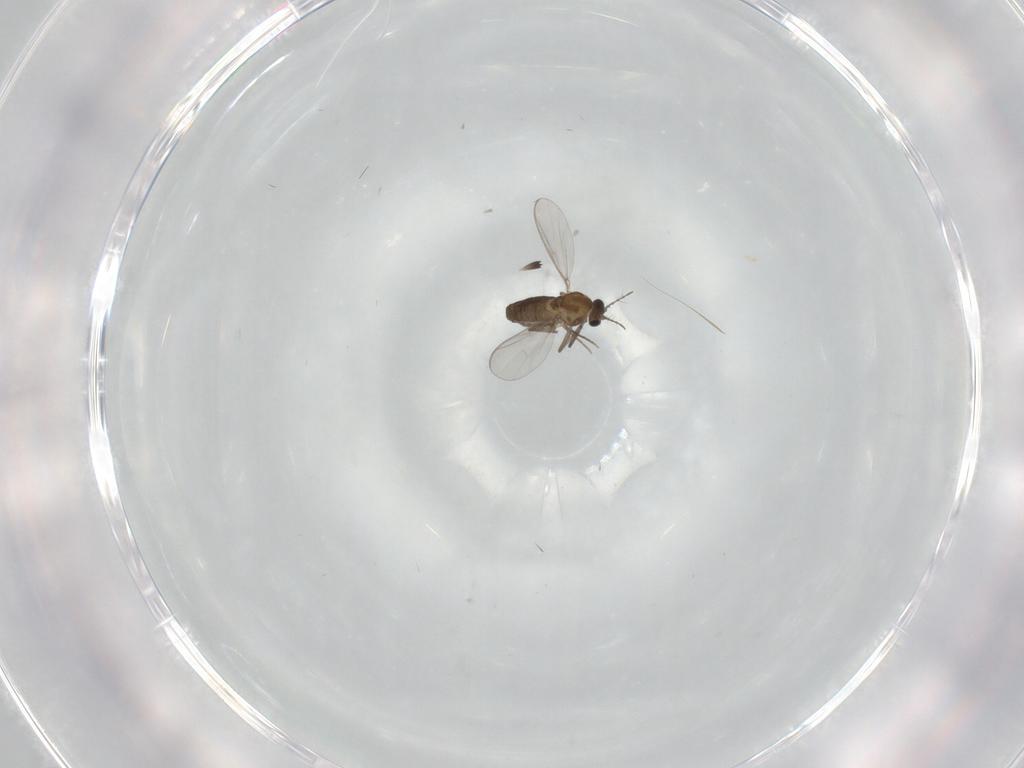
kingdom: Animalia
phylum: Arthropoda
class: Insecta
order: Diptera
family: Chironomidae
